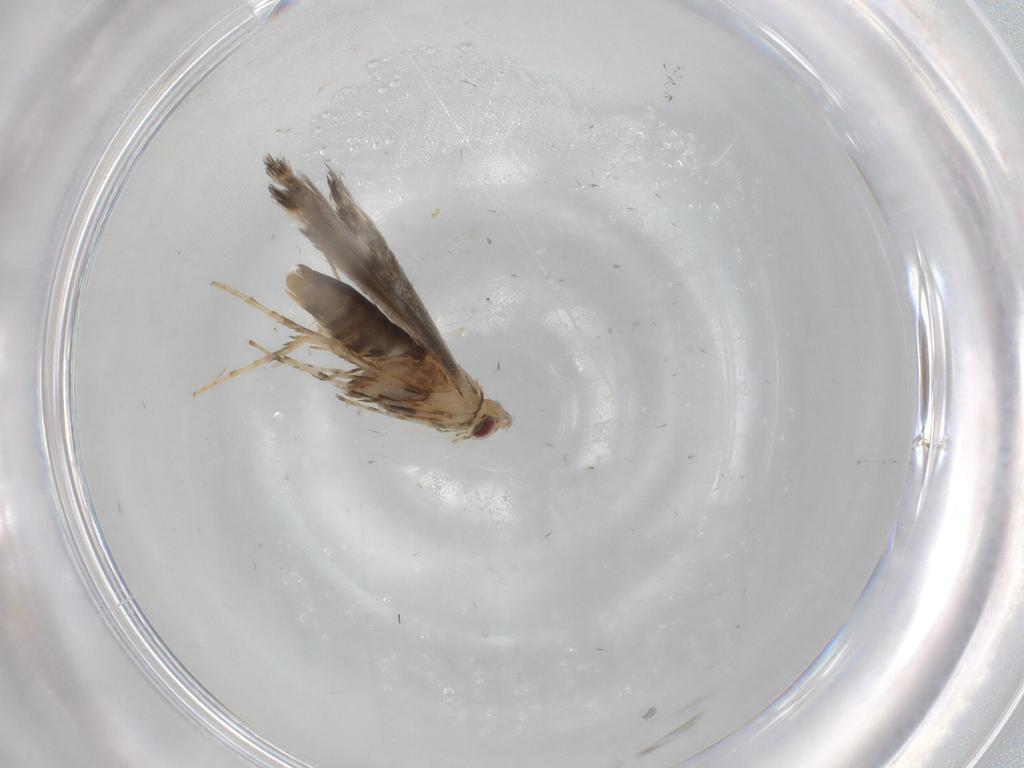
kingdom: Animalia
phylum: Arthropoda
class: Insecta
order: Lepidoptera
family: Gracillariidae
